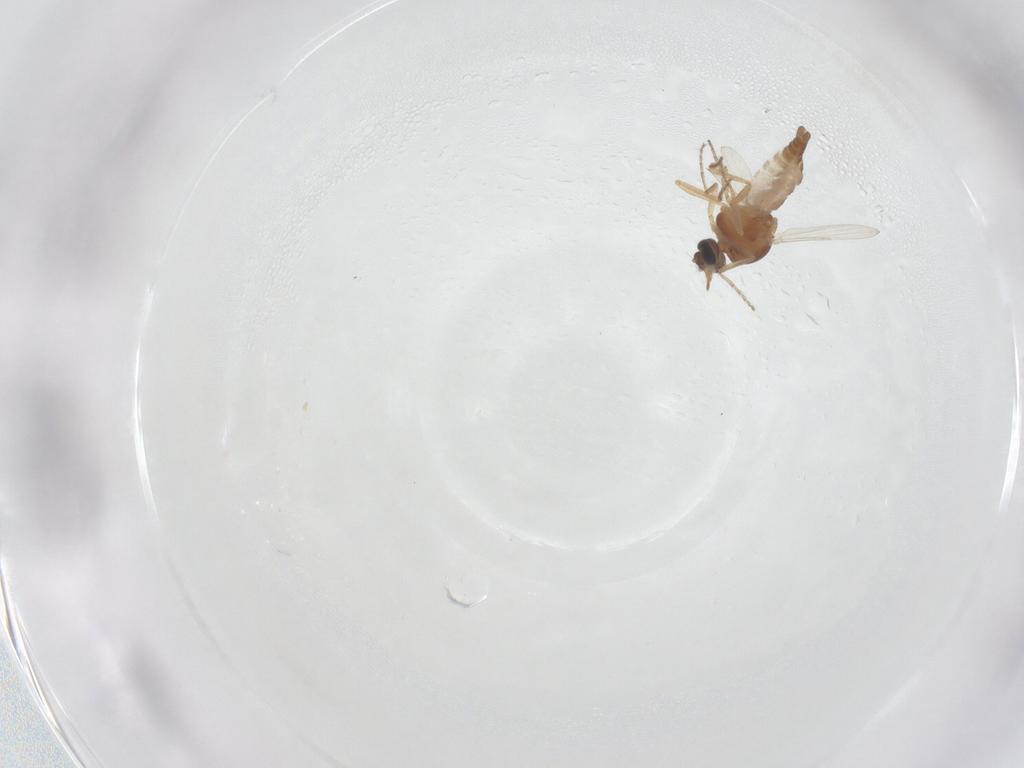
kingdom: Animalia
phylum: Arthropoda
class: Insecta
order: Diptera
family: Ceratopogonidae
